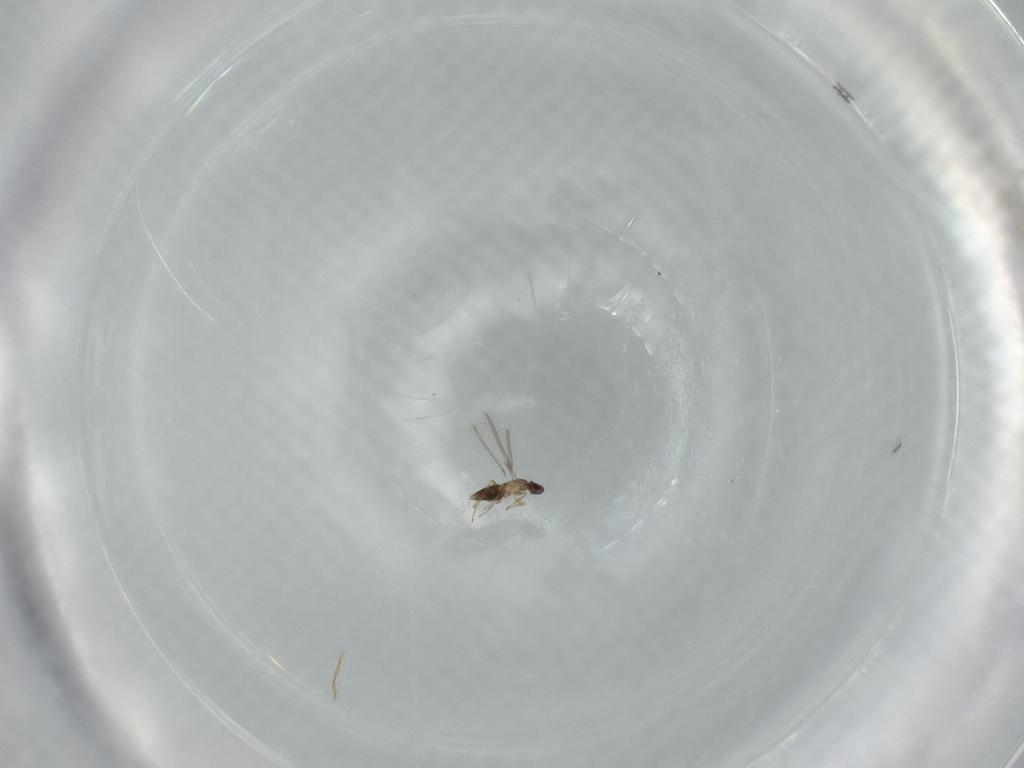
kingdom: Animalia
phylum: Arthropoda
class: Insecta
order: Hymenoptera
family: Mymaridae
